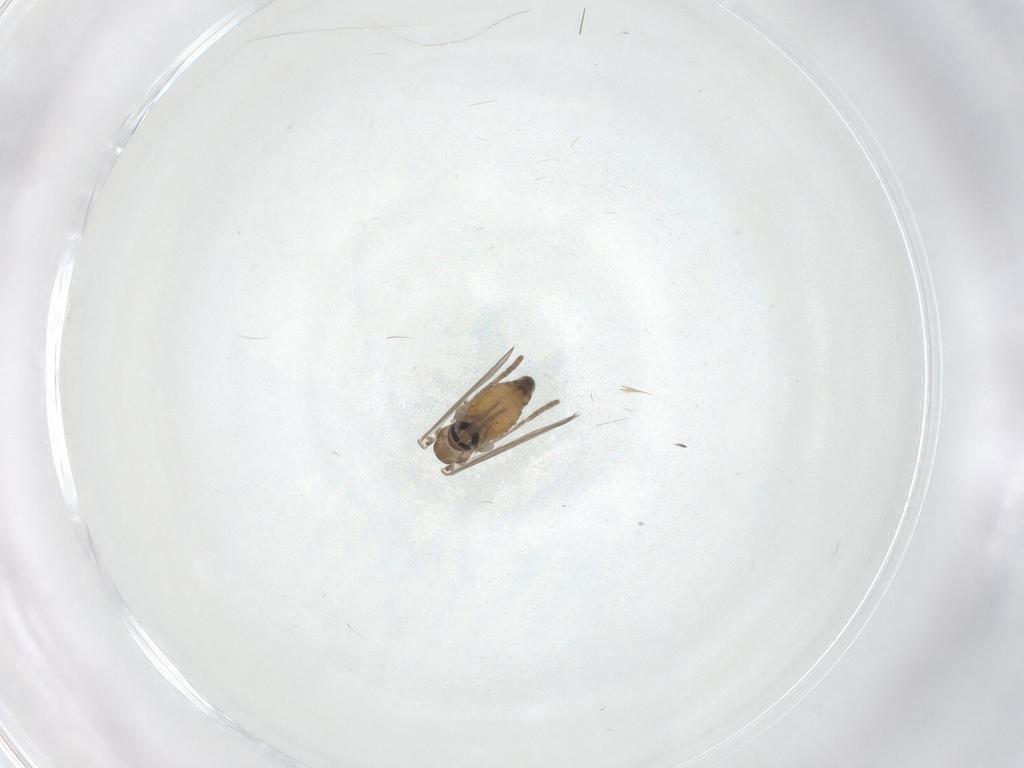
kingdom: Animalia
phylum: Arthropoda
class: Insecta
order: Diptera
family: Psychodidae
